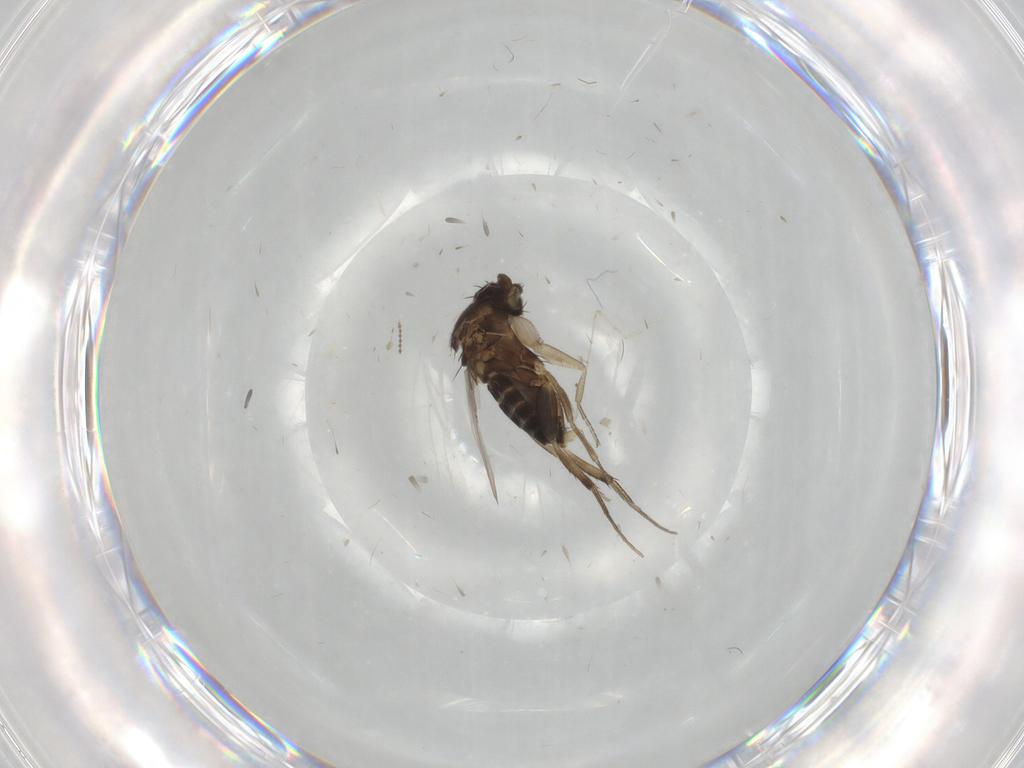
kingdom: Animalia
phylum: Arthropoda
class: Insecta
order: Diptera
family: Phoridae
